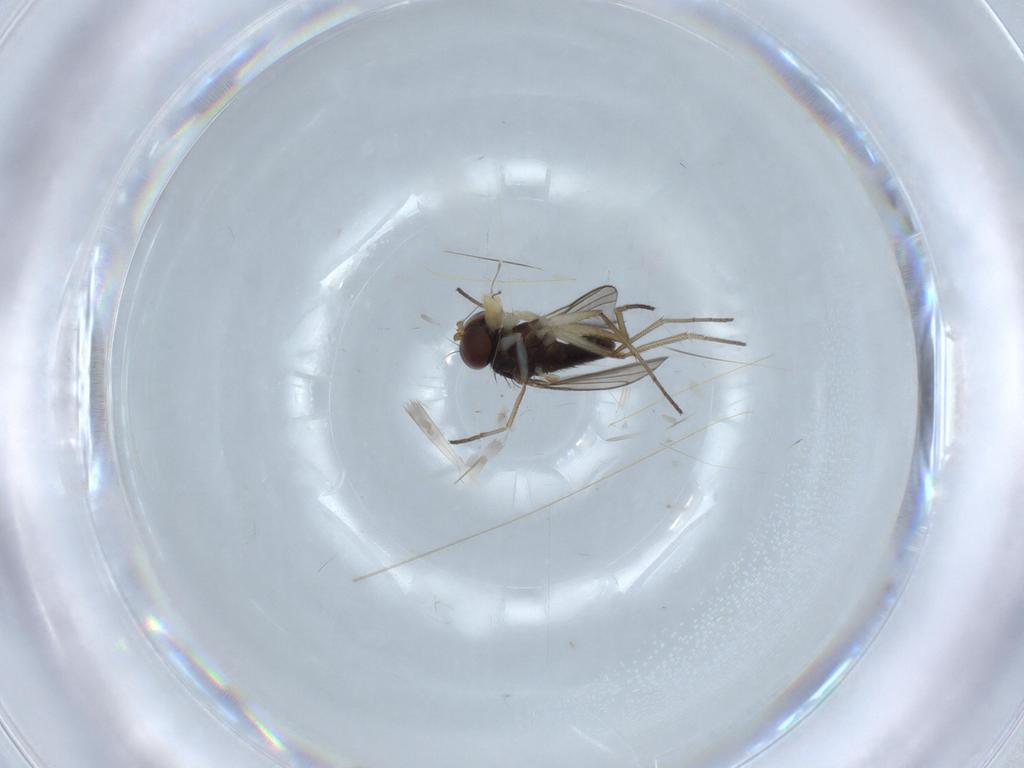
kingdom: Animalia
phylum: Arthropoda
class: Insecta
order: Diptera
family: Dolichopodidae
